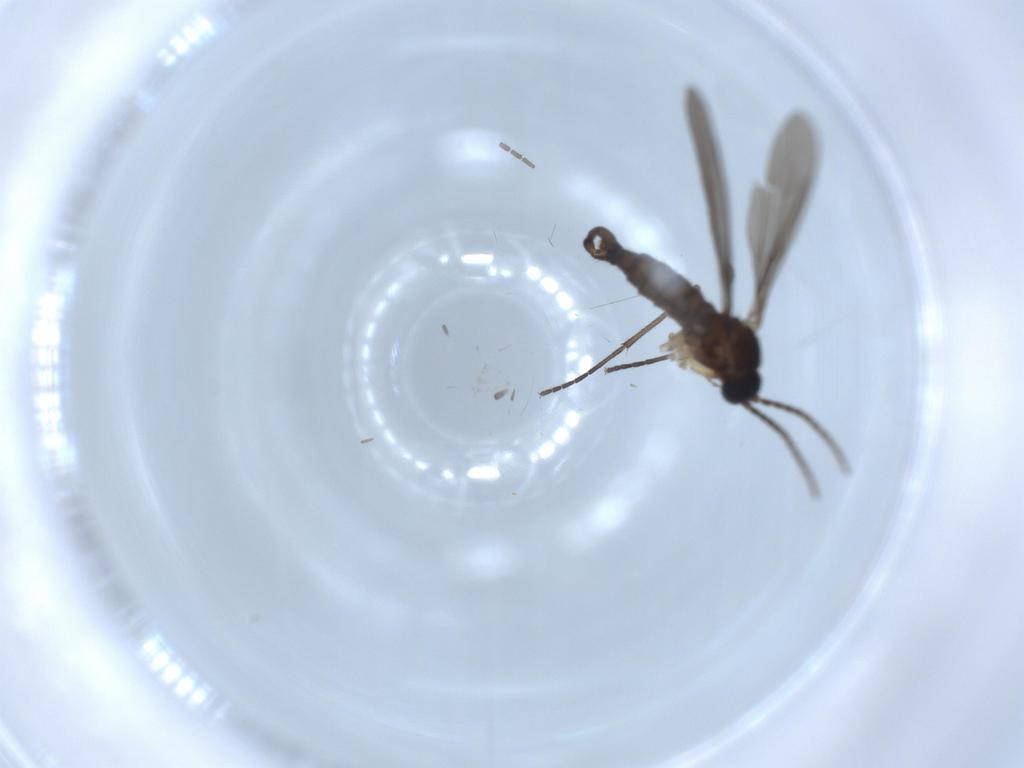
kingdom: Animalia
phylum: Arthropoda
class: Insecta
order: Diptera
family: Sciaridae
